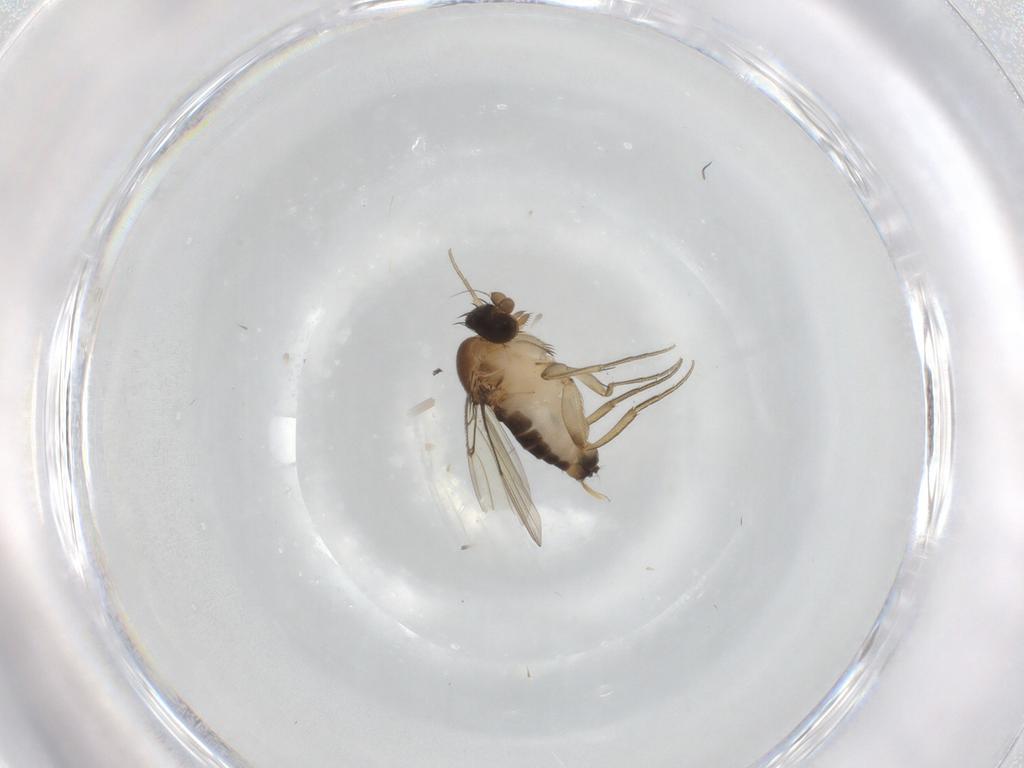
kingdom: Animalia
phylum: Arthropoda
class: Insecta
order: Diptera
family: Phoridae
